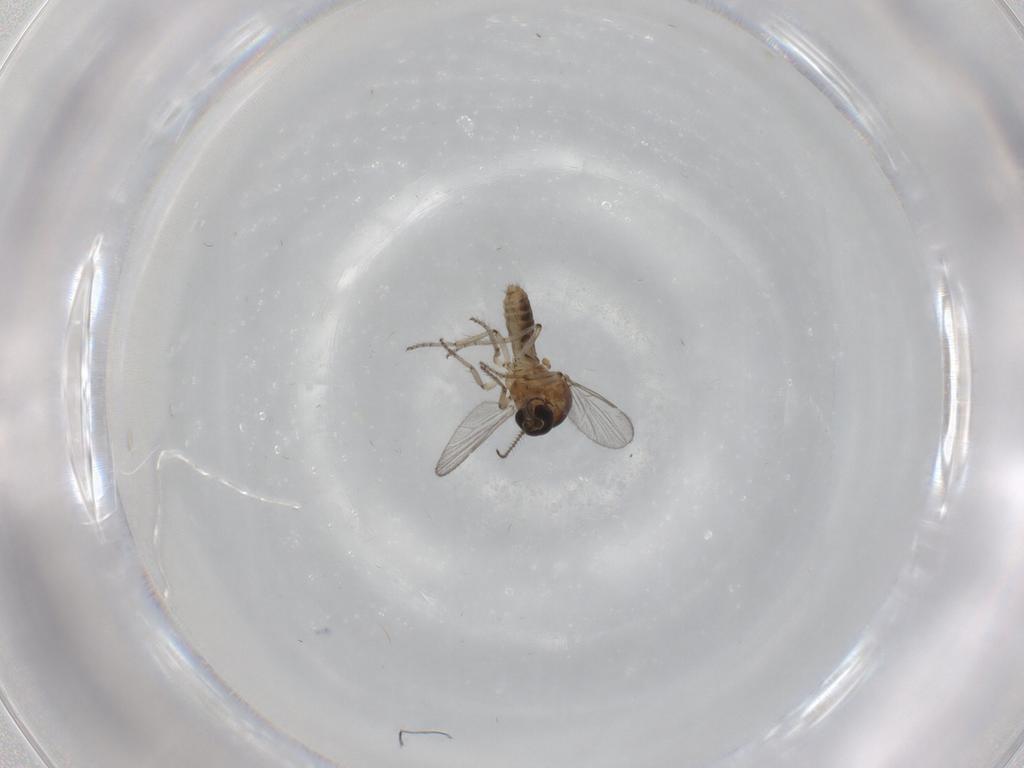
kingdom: Animalia
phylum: Arthropoda
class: Insecta
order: Diptera
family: Ceratopogonidae
